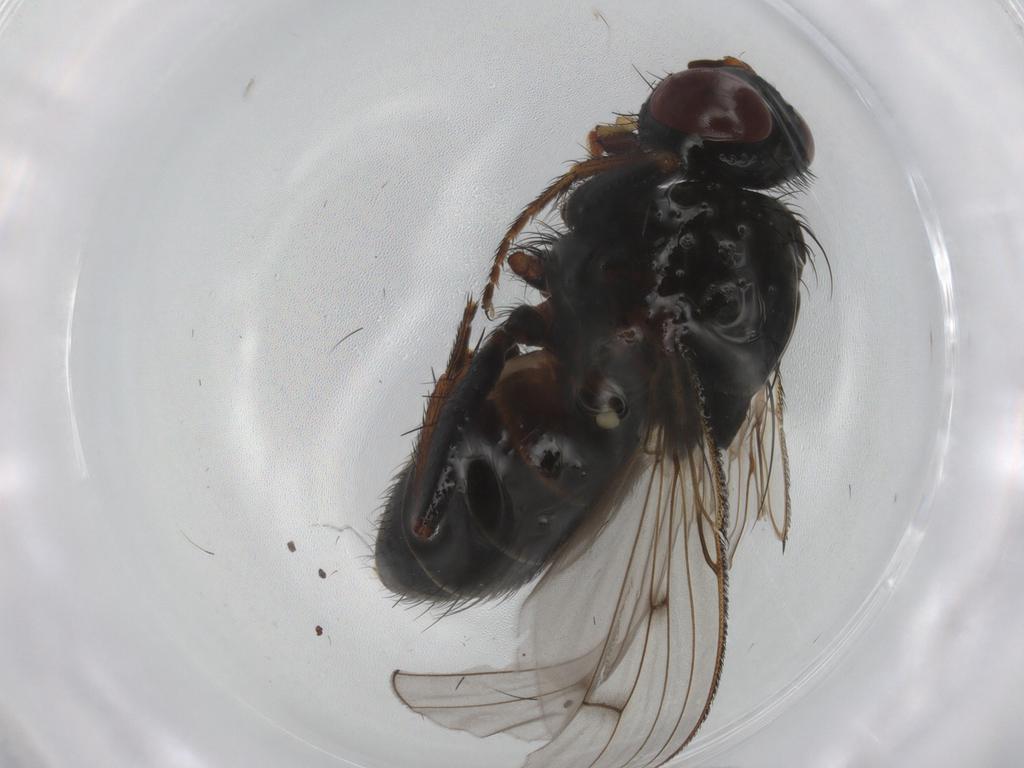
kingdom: Animalia
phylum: Arthropoda
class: Insecta
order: Diptera
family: Muscidae
